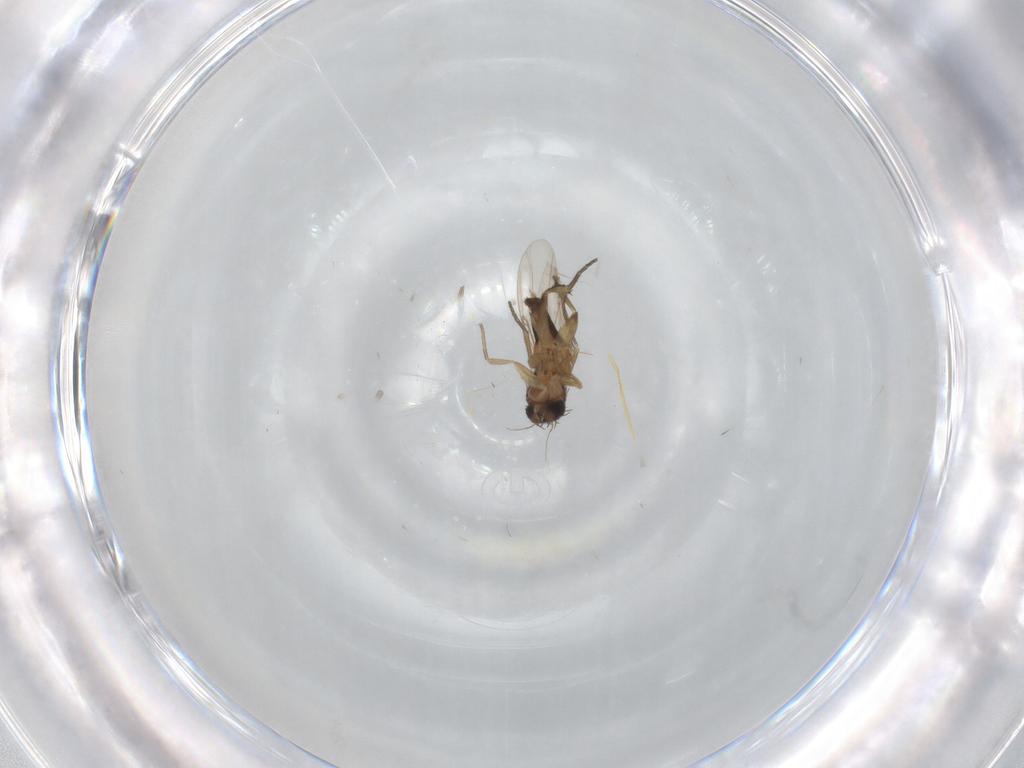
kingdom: Animalia
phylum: Arthropoda
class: Insecta
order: Diptera
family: Phoridae
